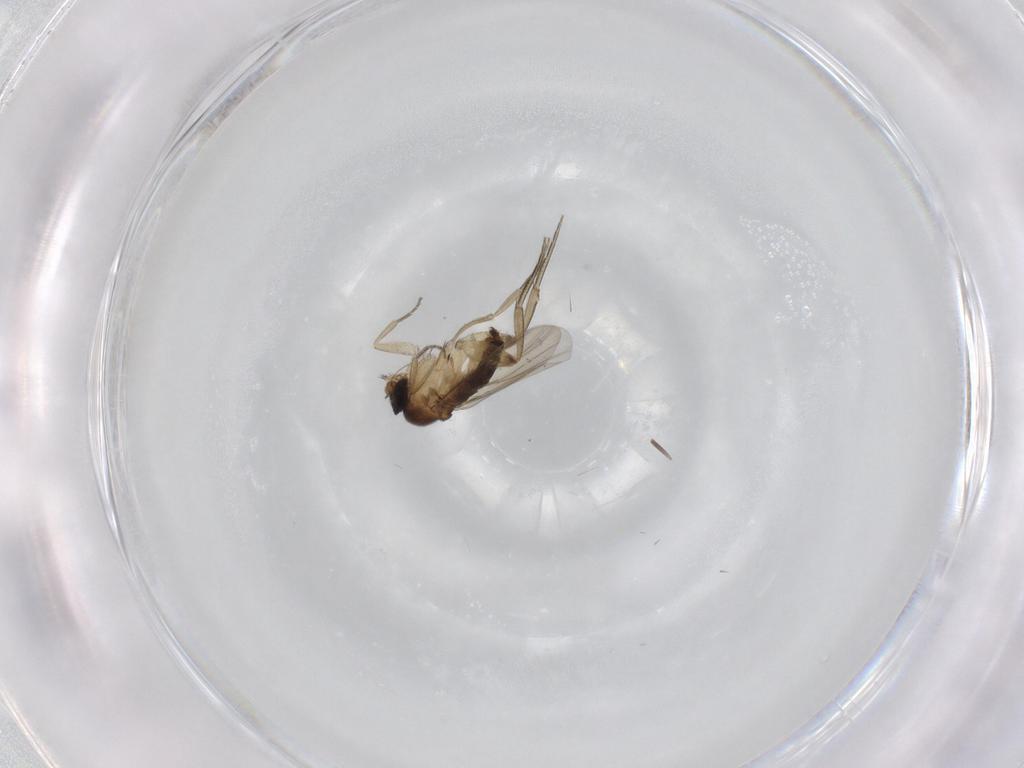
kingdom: Animalia
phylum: Arthropoda
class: Insecta
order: Diptera
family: Phoridae
